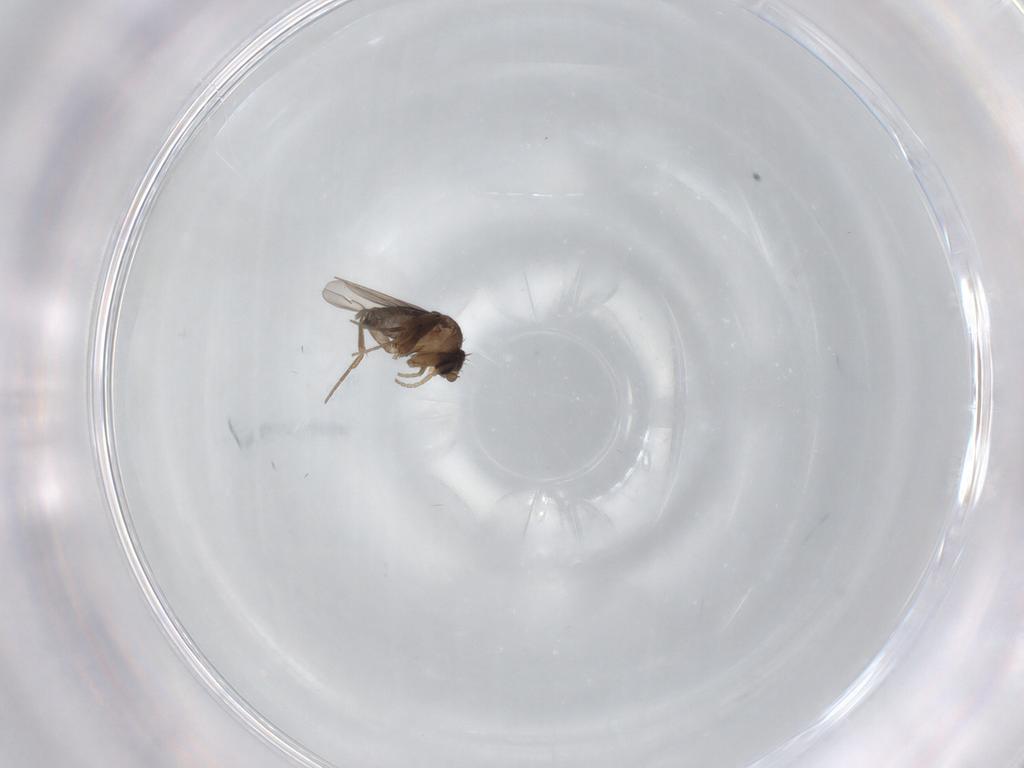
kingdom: Animalia
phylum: Arthropoda
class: Insecta
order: Diptera
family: Phoridae
